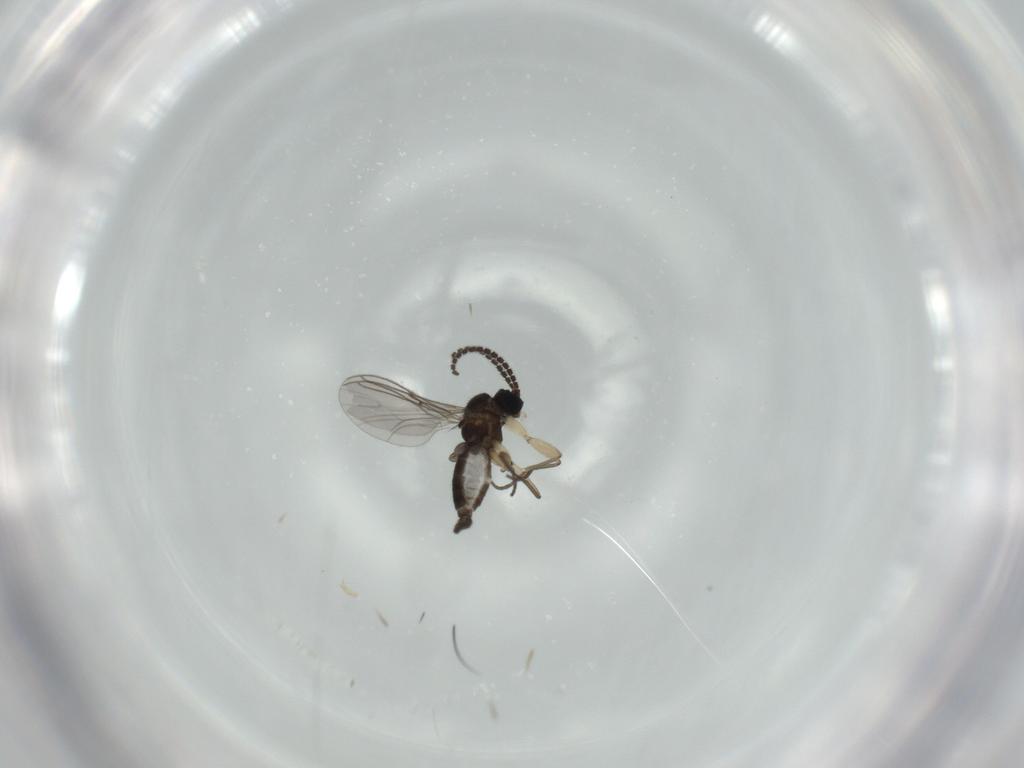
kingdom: Animalia
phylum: Arthropoda
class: Insecta
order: Diptera
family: Sciaridae
